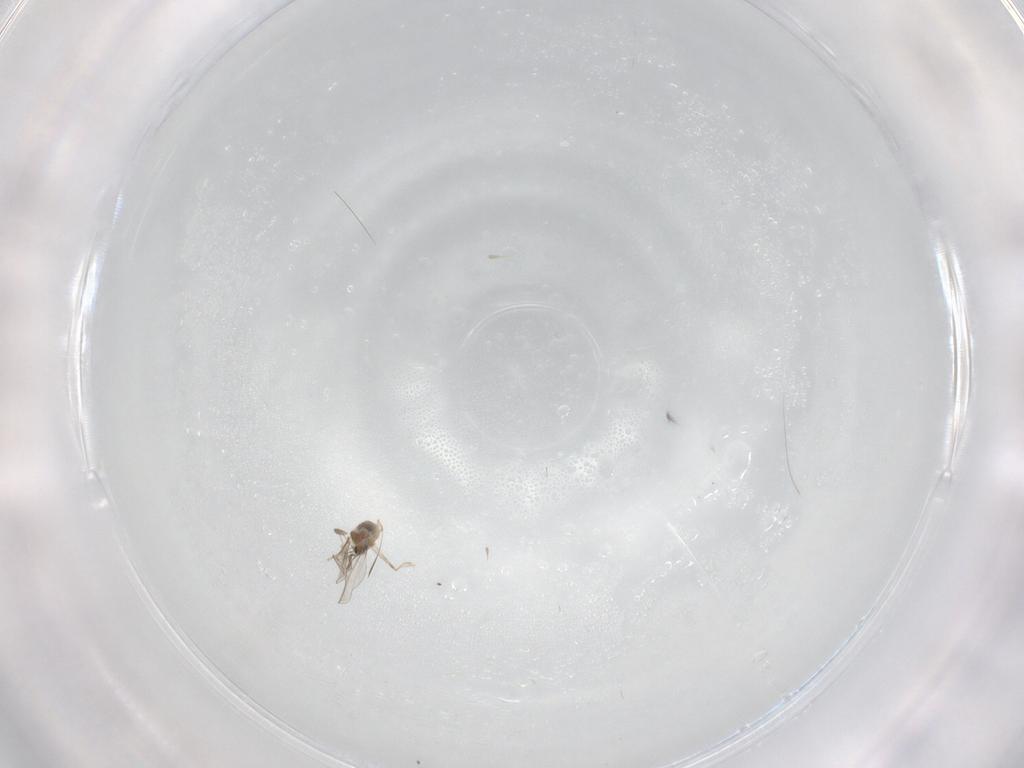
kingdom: Animalia
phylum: Arthropoda
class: Insecta
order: Diptera
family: Cecidomyiidae
